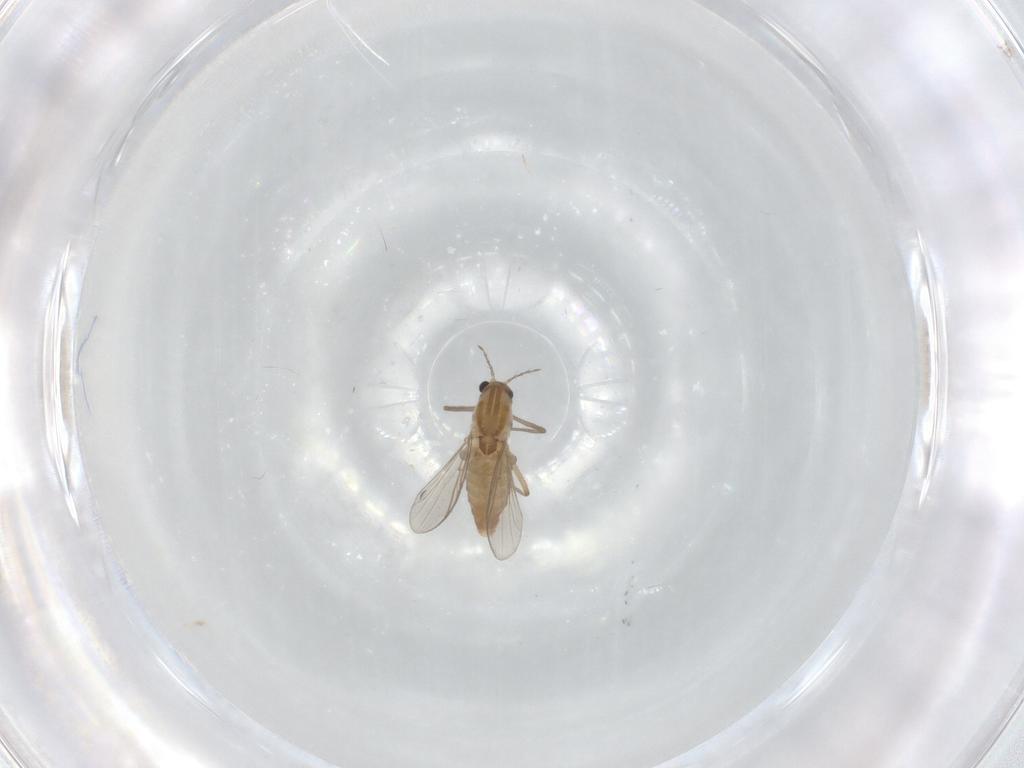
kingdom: Animalia
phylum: Arthropoda
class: Insecta
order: Diptera
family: Chironomidae
